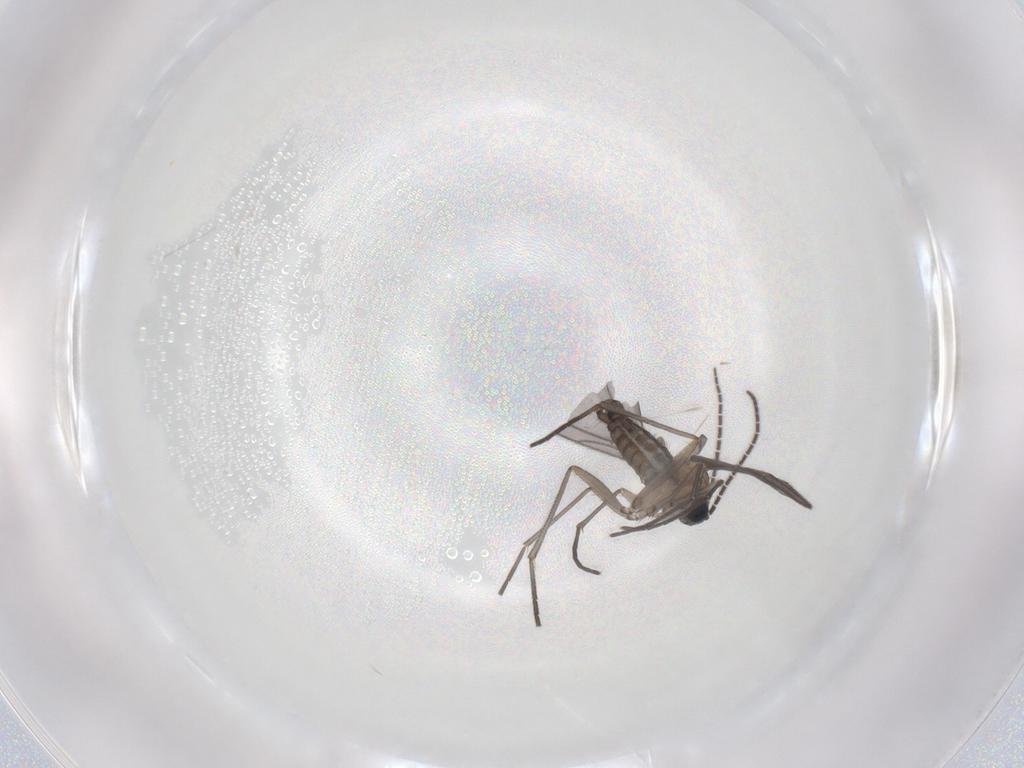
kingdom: Animalia
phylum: Arthropoda
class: Insecta
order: Diptera
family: Sciaridae
